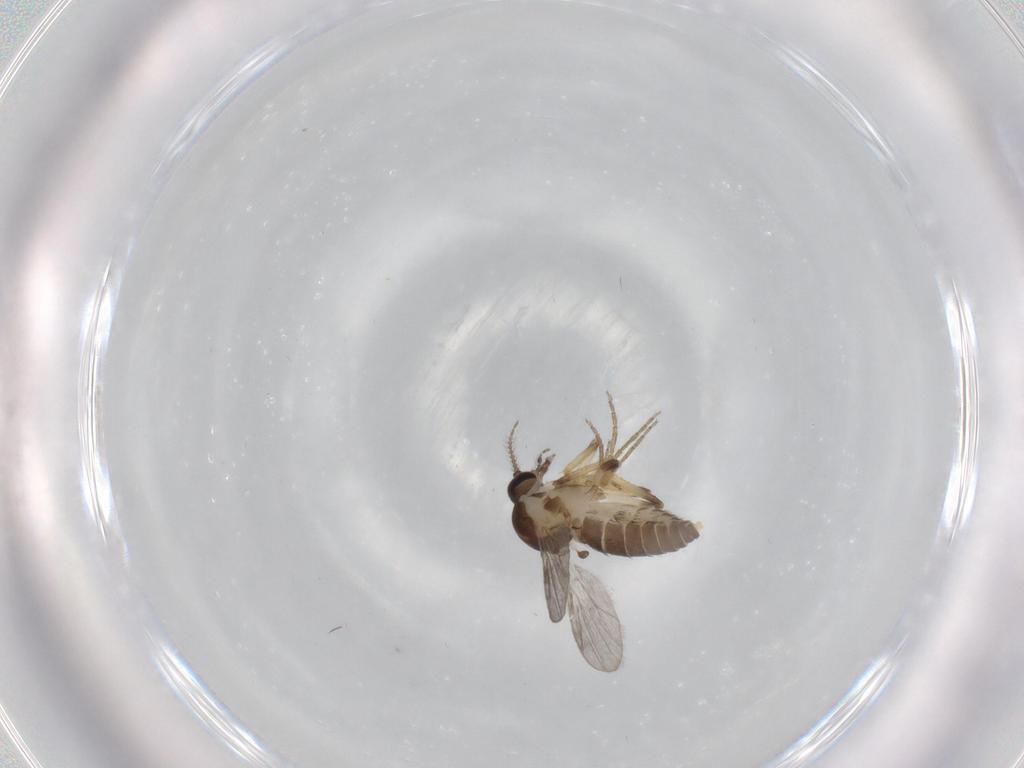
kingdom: Animalia
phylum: Arthropoda
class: Insecta
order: Diptera
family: Ceratopogonidae
